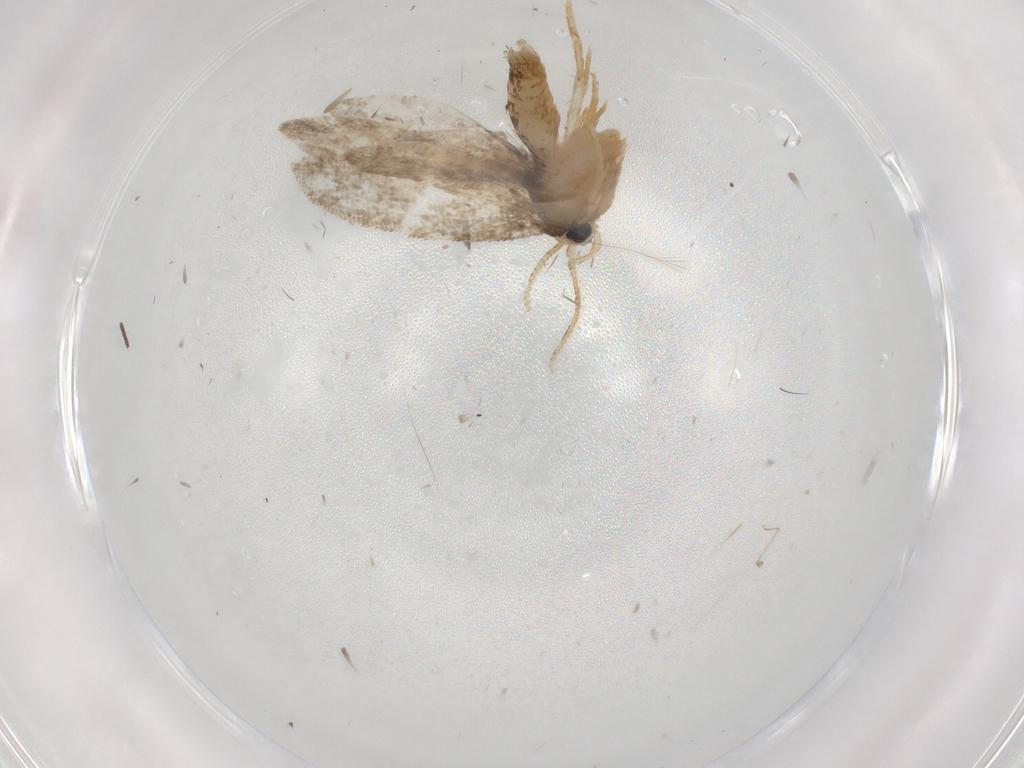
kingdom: Animalia
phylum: Arthropoda
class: Insecta
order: Lepidoptera
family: Psychidae
